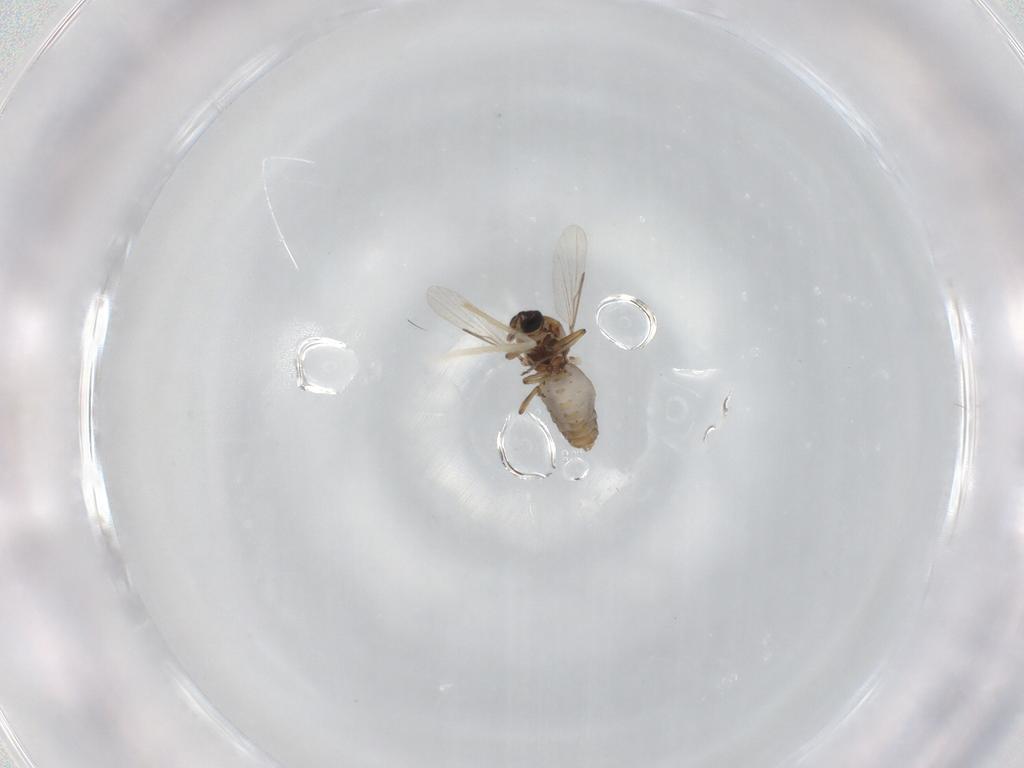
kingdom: Animalia
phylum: Arthropoda
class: Insecta
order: Diptera
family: Ceratopogonidae
